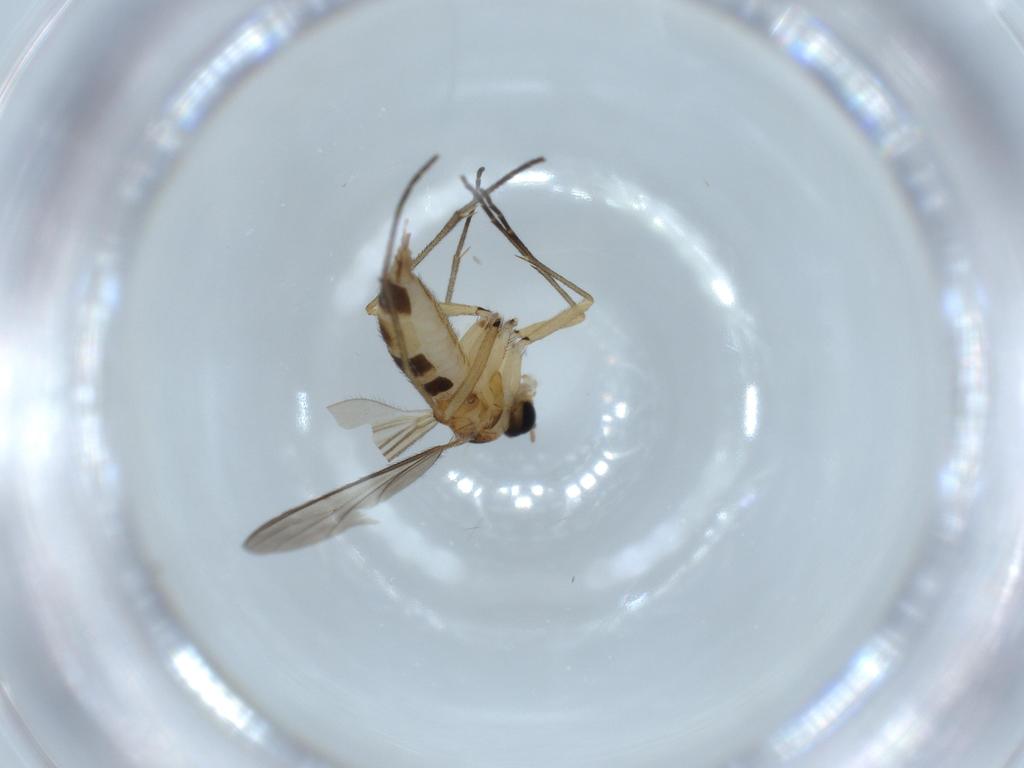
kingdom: Animalia
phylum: Arthropoda
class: Insecta
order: Diptera
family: Sciaridae
